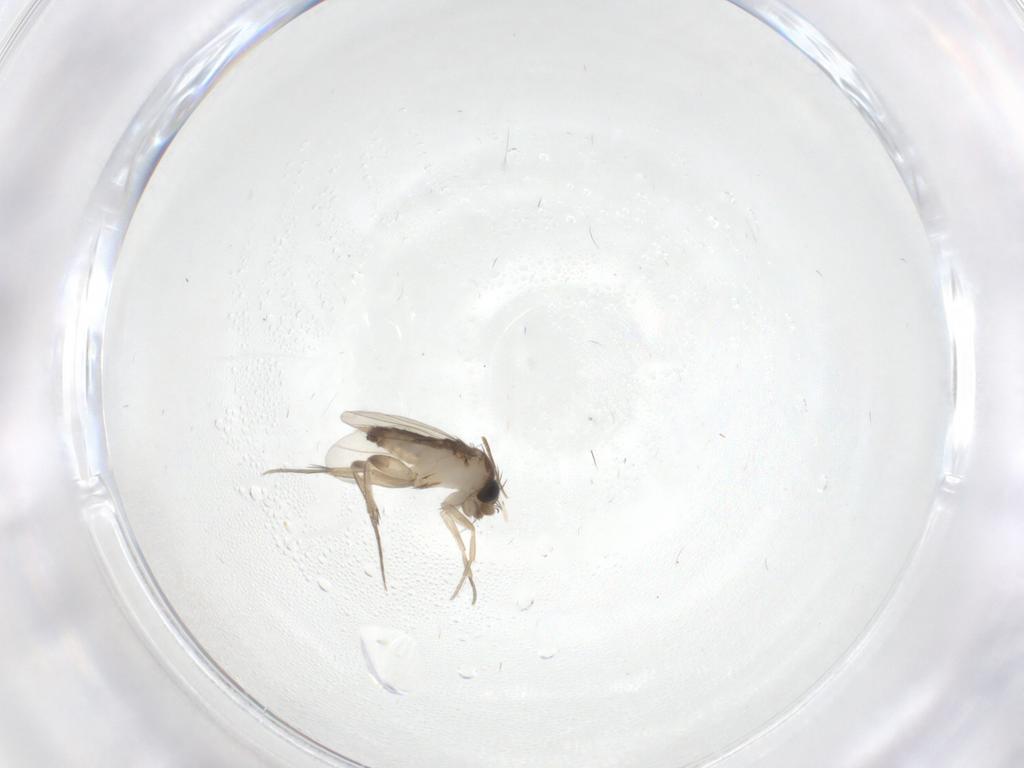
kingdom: Animalia
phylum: Arthropoda
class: Insecta
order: Diptera
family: Phoridae
